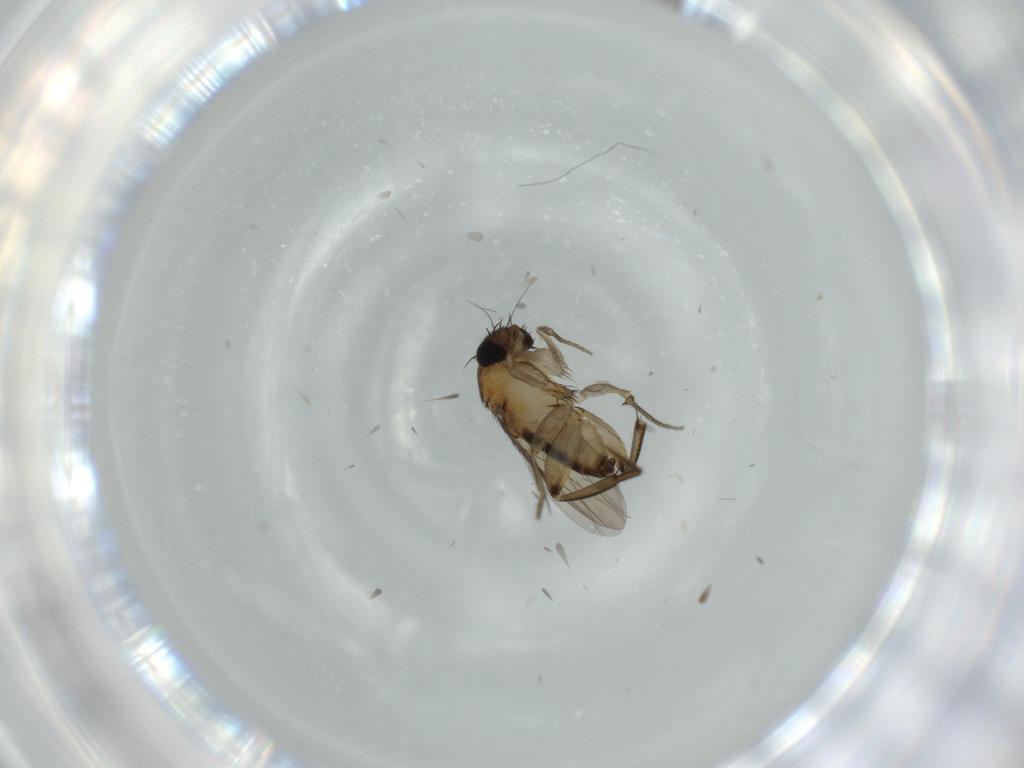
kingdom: Animalia
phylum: Arthropoda
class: Insecta
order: Diptera
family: Phoridae
